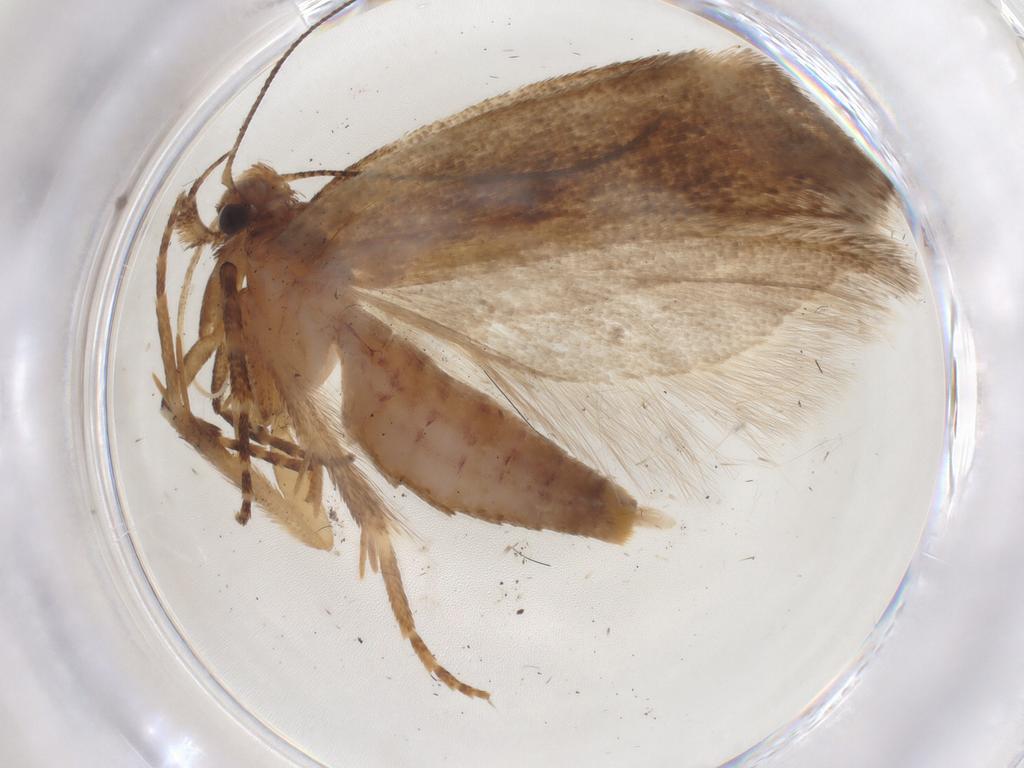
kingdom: Animalia
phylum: Arthropoda
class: Insecta
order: Lepidoptera
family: Gelechiidae
